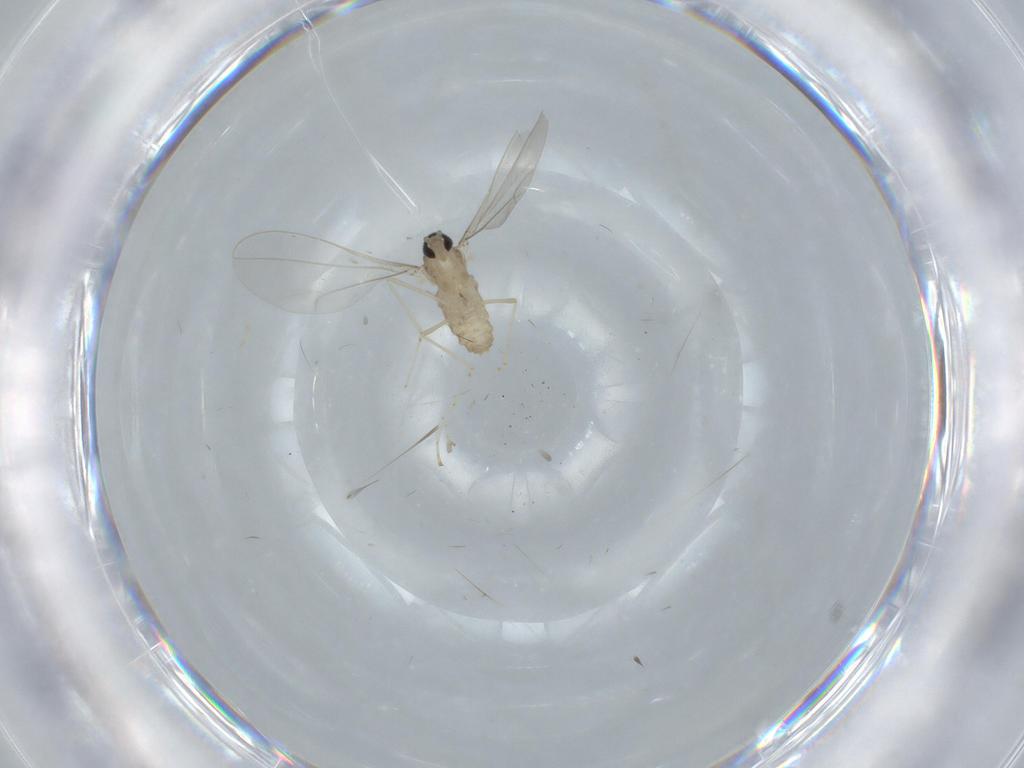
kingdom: Animalia
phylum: Arthropoda
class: Insecta
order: Diptera
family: Cecidomyiidae
